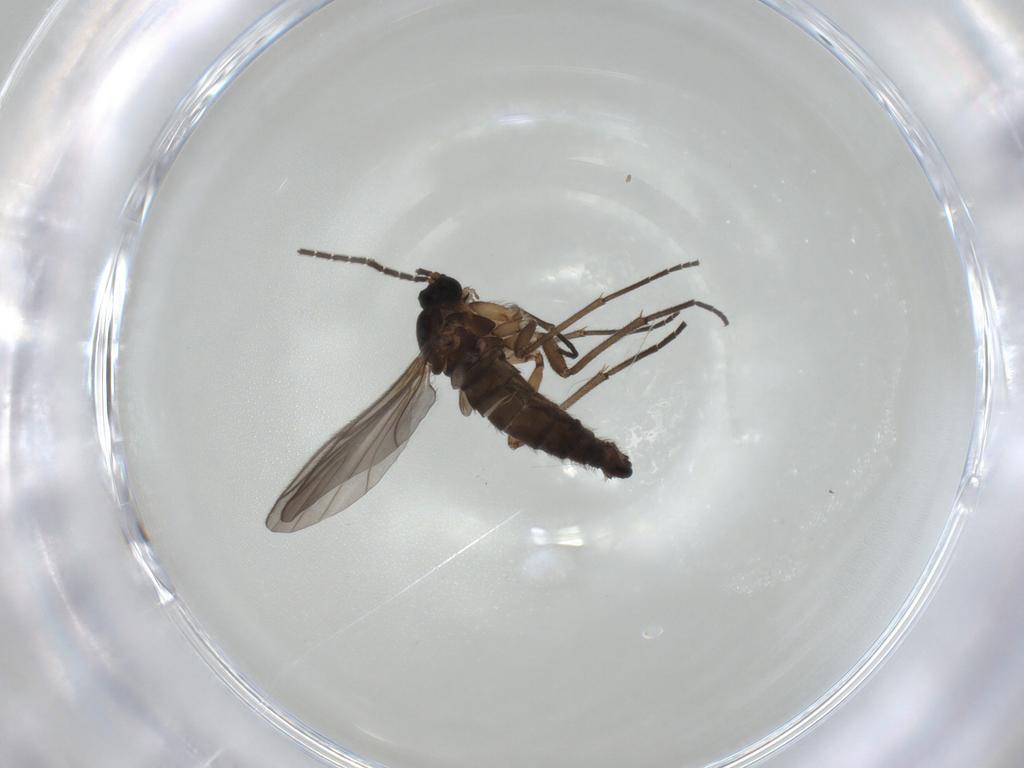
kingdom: Animalia
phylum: Arthropoda
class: Insecta
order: Diptera
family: Sciaridae
